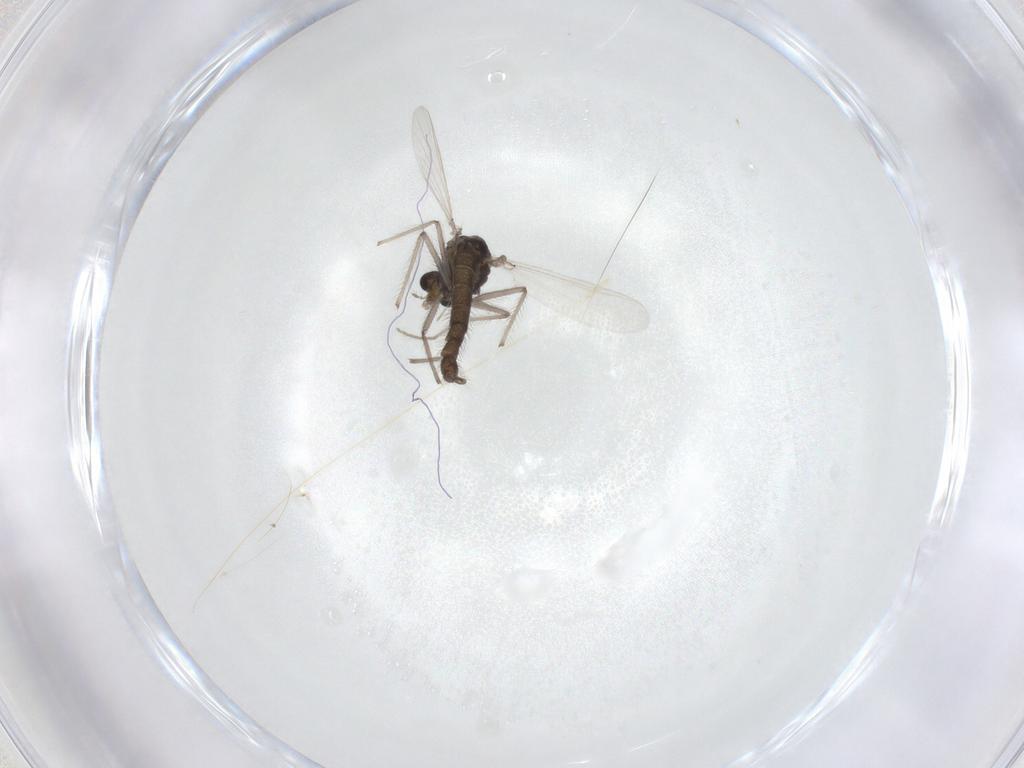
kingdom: Animalia
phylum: Arthropoda
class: Insecta
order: Diptera
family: Chironomidae
